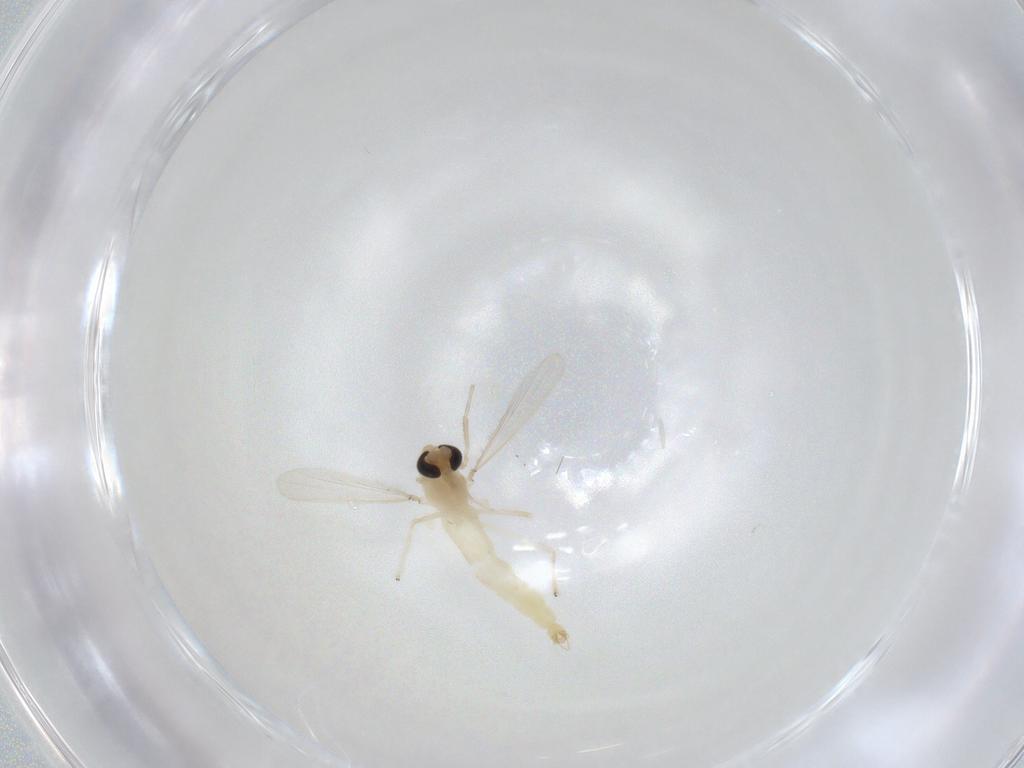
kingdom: Animalia
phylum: Arthropoda
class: Insecta
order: Diptera
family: Chironomidae
